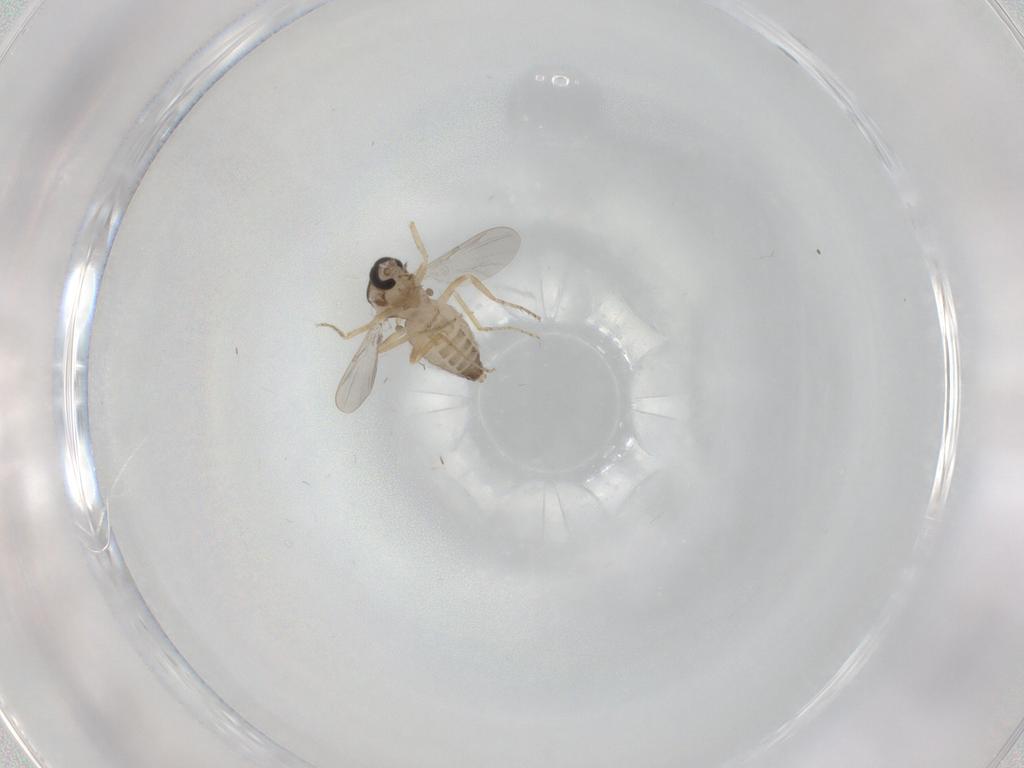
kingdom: Animalia
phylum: Arthropoda
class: Insecta
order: Diptera
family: Ceratopogonidae
